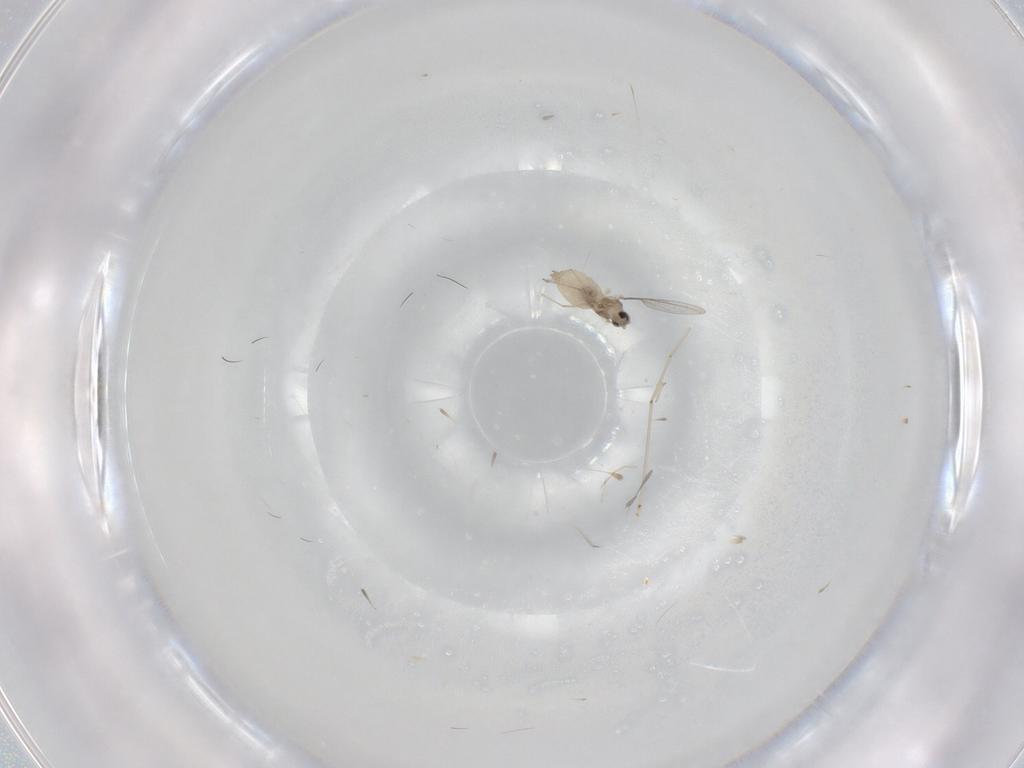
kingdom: Animalia
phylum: Arthropoda
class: Insecta
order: Diptera
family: Cecidomyiidae
